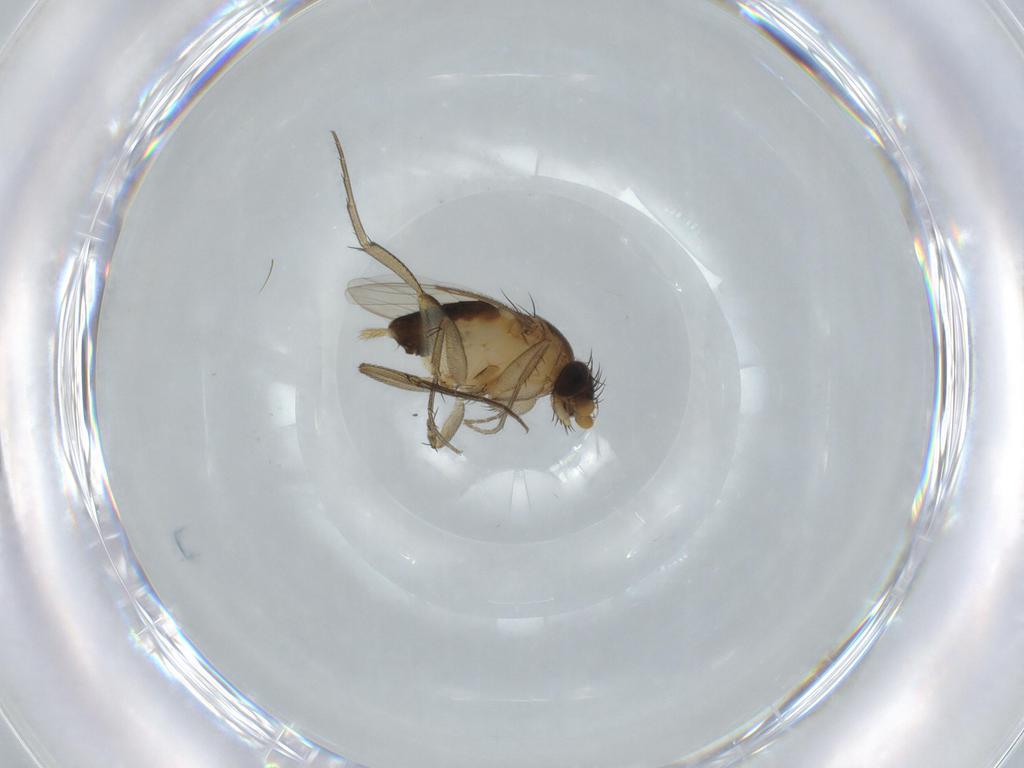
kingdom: Animalia
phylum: Arthropoda
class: Insecta
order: Diptera
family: Phoridae
